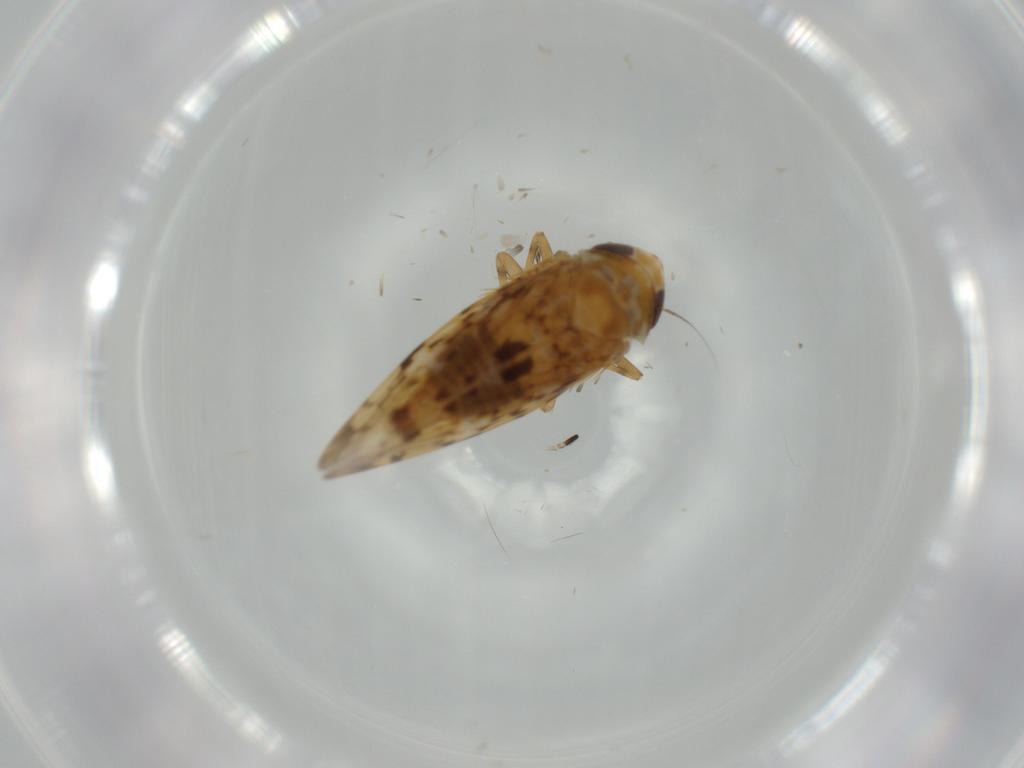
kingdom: Animalia
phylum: Arthropoda
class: Insecta
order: Hemiptera
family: Cicadellidae
